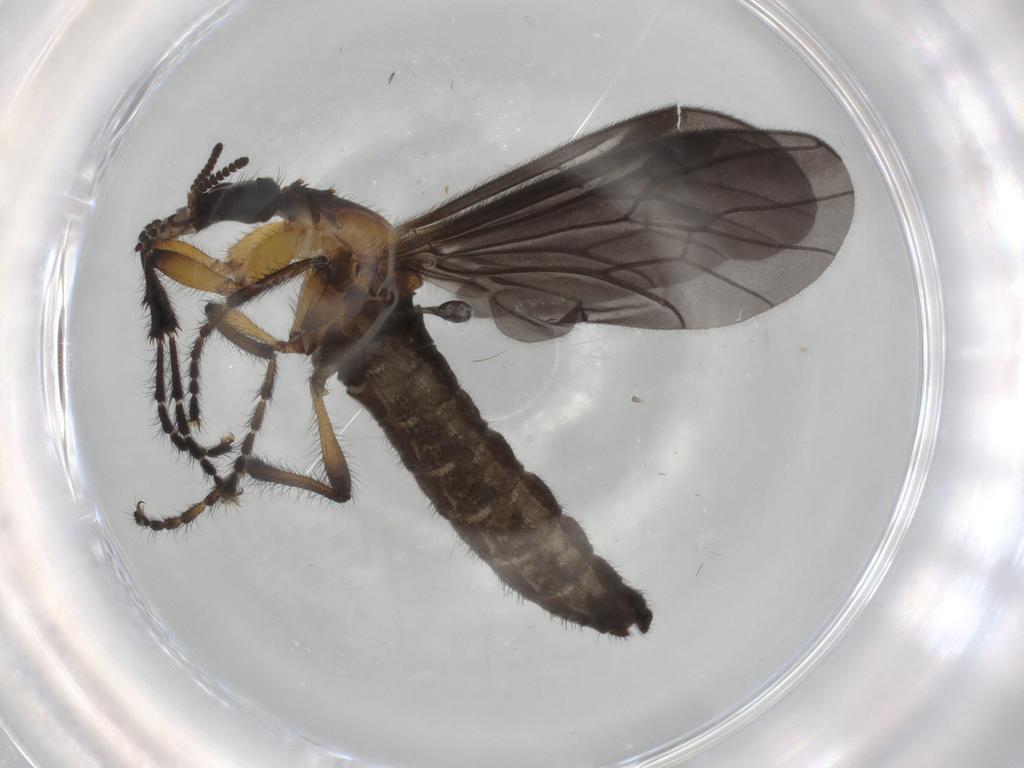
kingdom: Animalia
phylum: Arthropoda
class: Insecta
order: Diptera
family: Bibionidae
